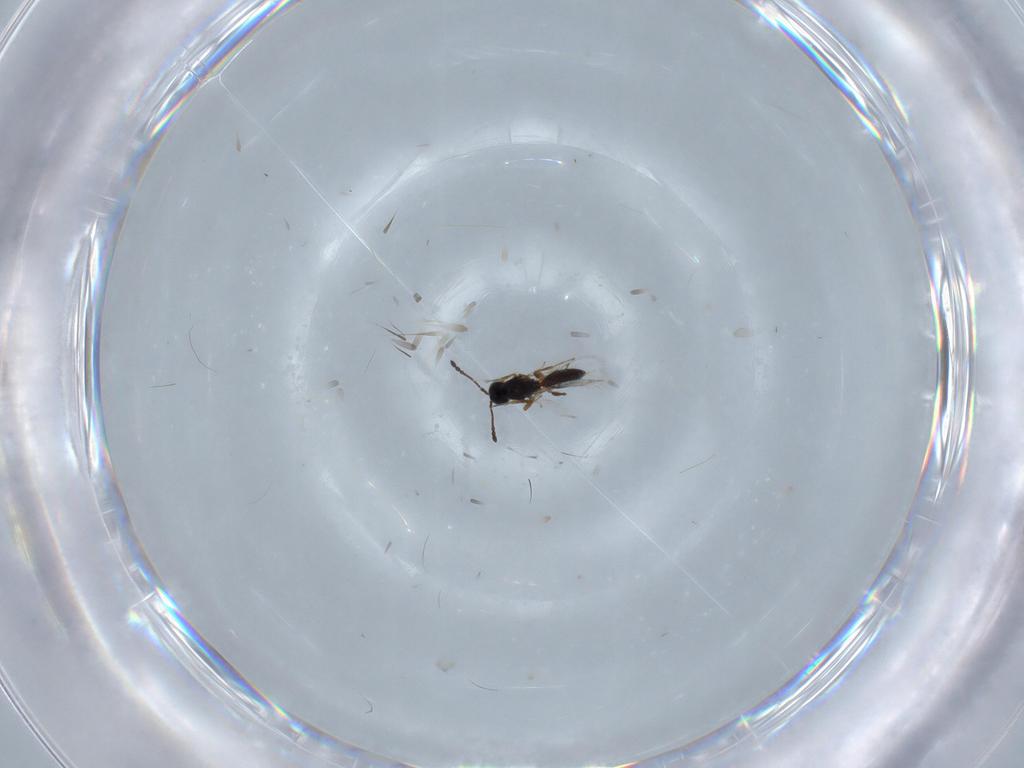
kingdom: Animalia
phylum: Arthropoda
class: Insecta
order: Hymenoptera
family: Figitidae
